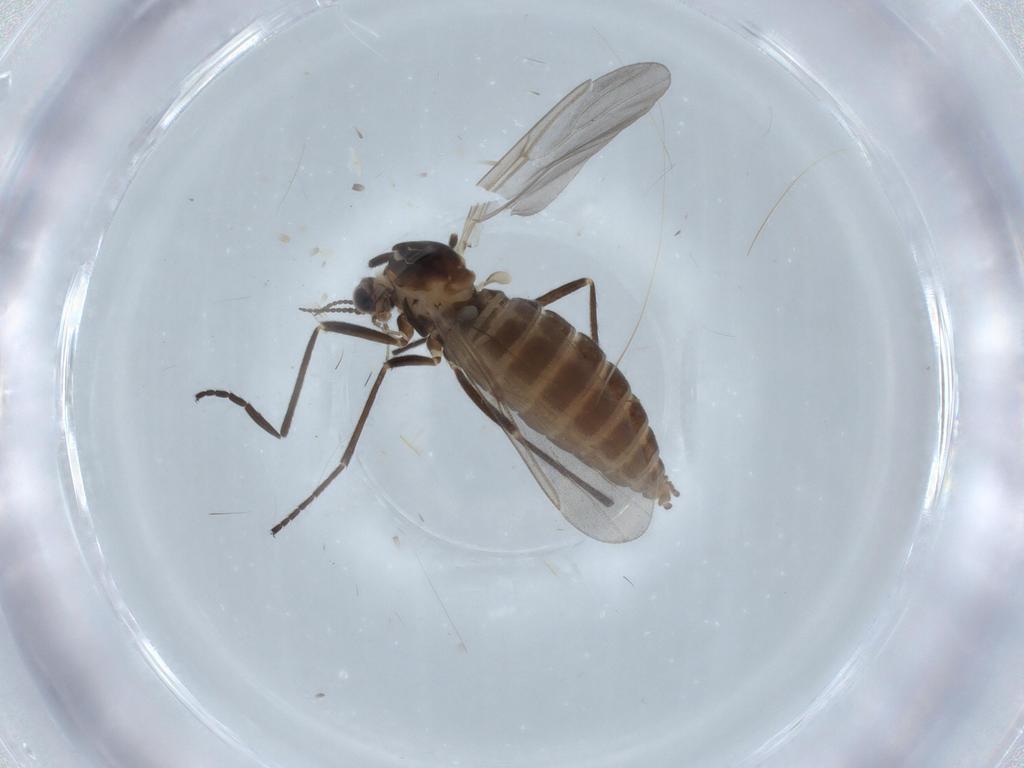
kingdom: Animalia
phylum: Arthropoda
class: Insecta
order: Diptera
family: Cecidomyiidae
